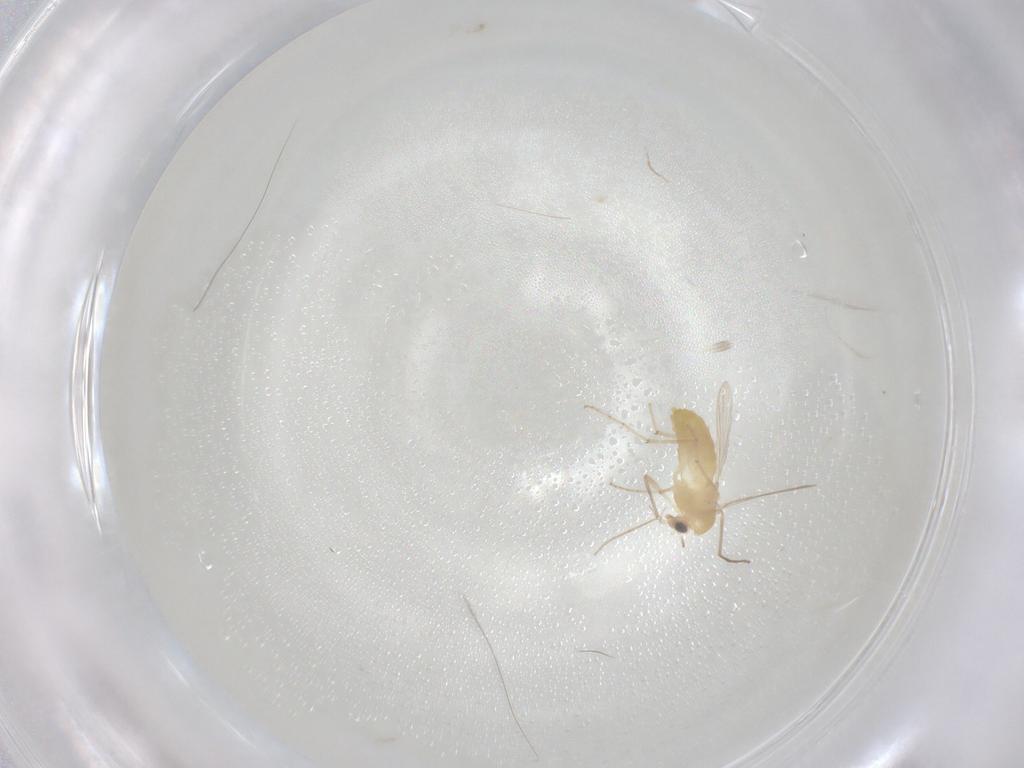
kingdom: Animalia
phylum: Arthropoda
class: Insecta
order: Diptera
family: Chironomidae
